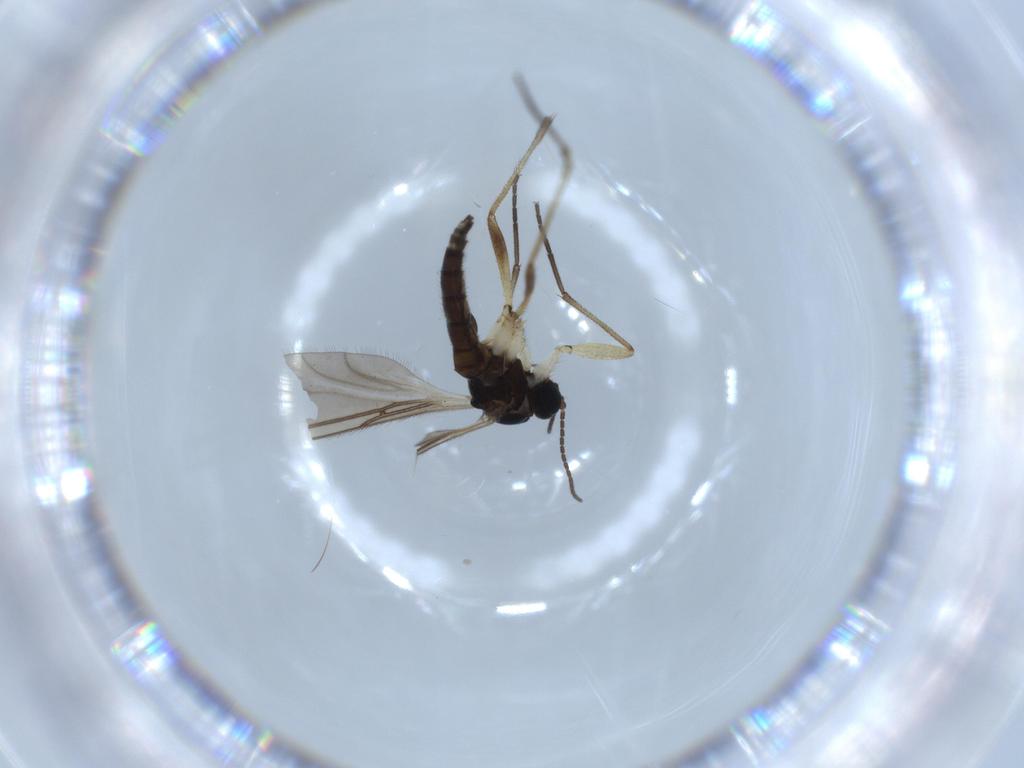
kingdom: Animalia
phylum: Arthropoda
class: Insecta
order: Diptera
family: Sciaridae
